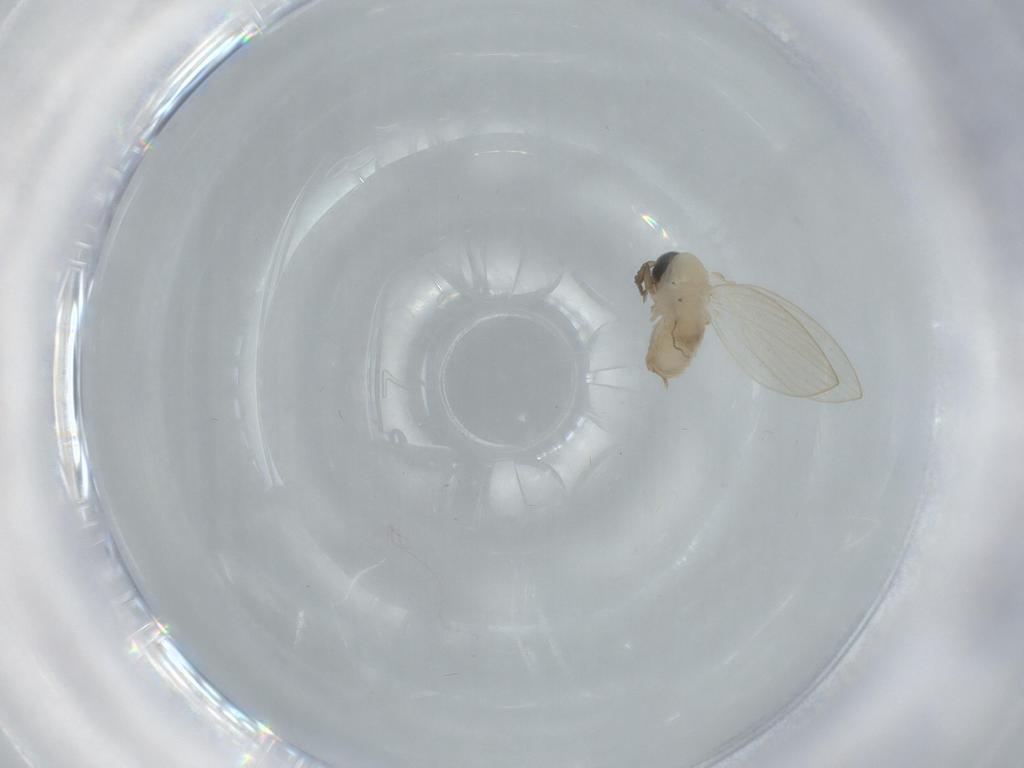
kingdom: Animalia
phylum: Arthropoda
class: Insecta
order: Diptera
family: Psychodidae
